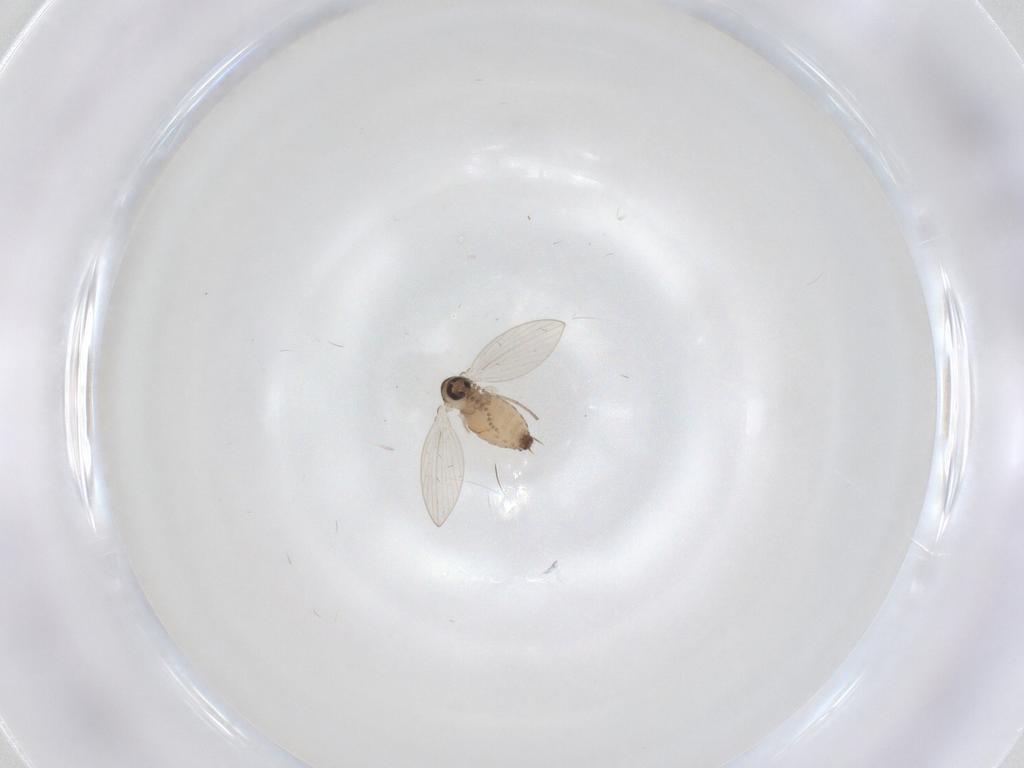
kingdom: Animalia
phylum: Arthropoda
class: Insecta
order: Diptera
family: Psychodidae
